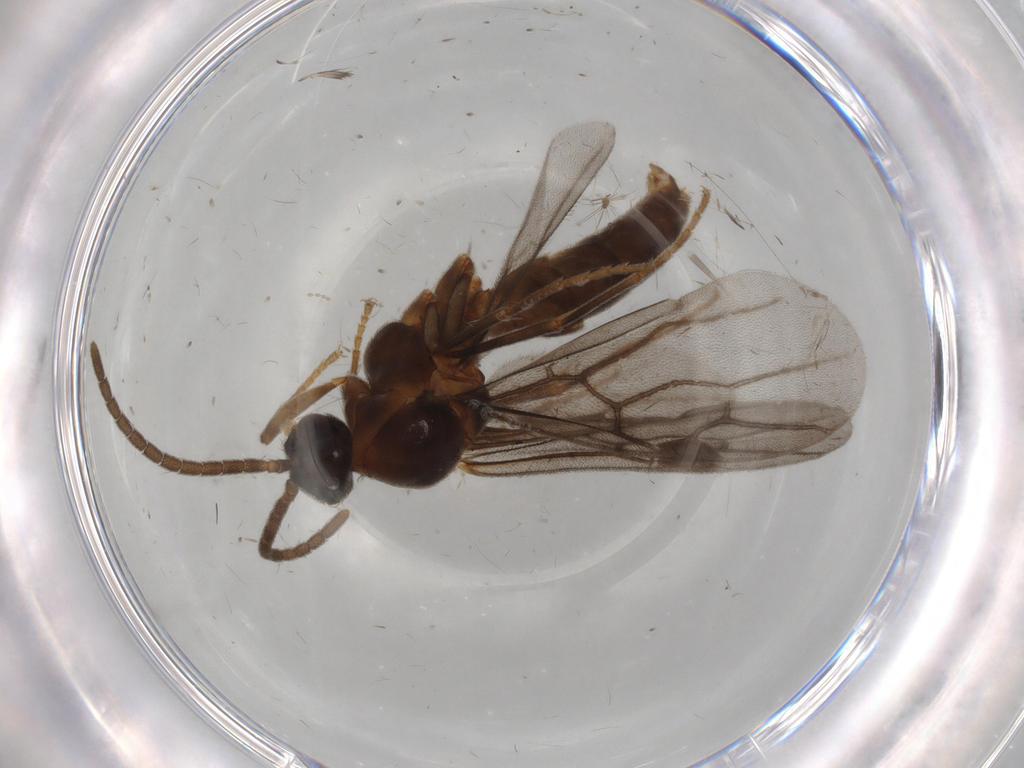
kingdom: Animalia
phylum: Arthropoda
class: Insecta
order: Hymenoptera
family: Formicidae
